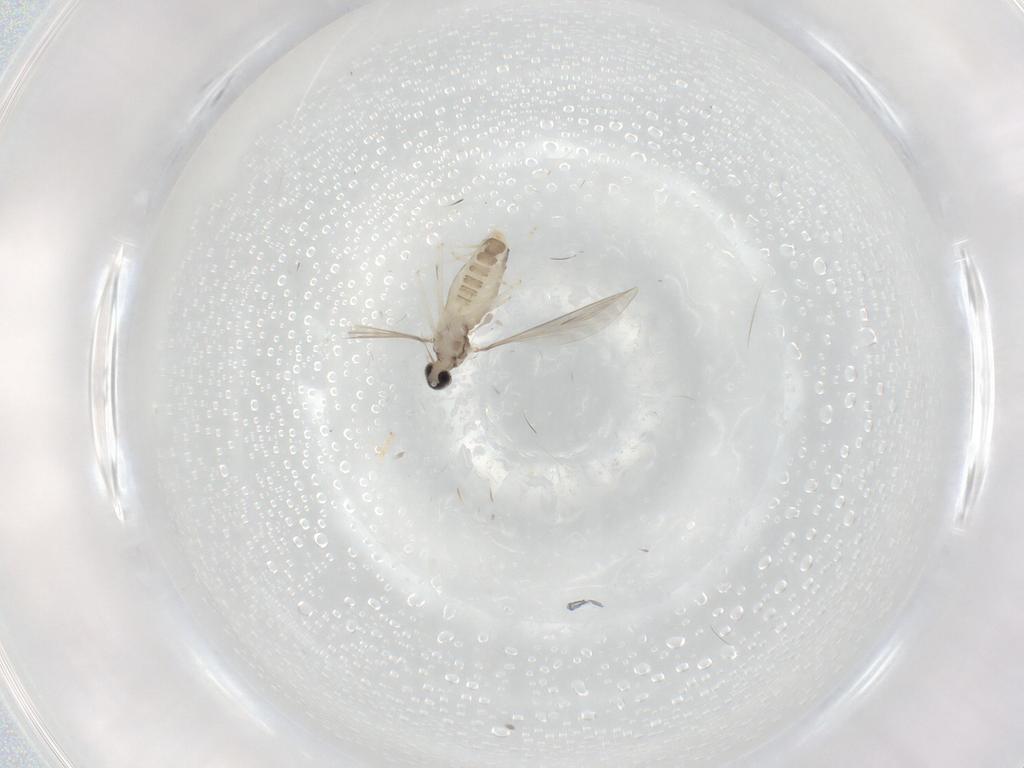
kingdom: Animalia
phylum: Arthropoda
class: Insecta
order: Diptera
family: Cecidomyiidae
